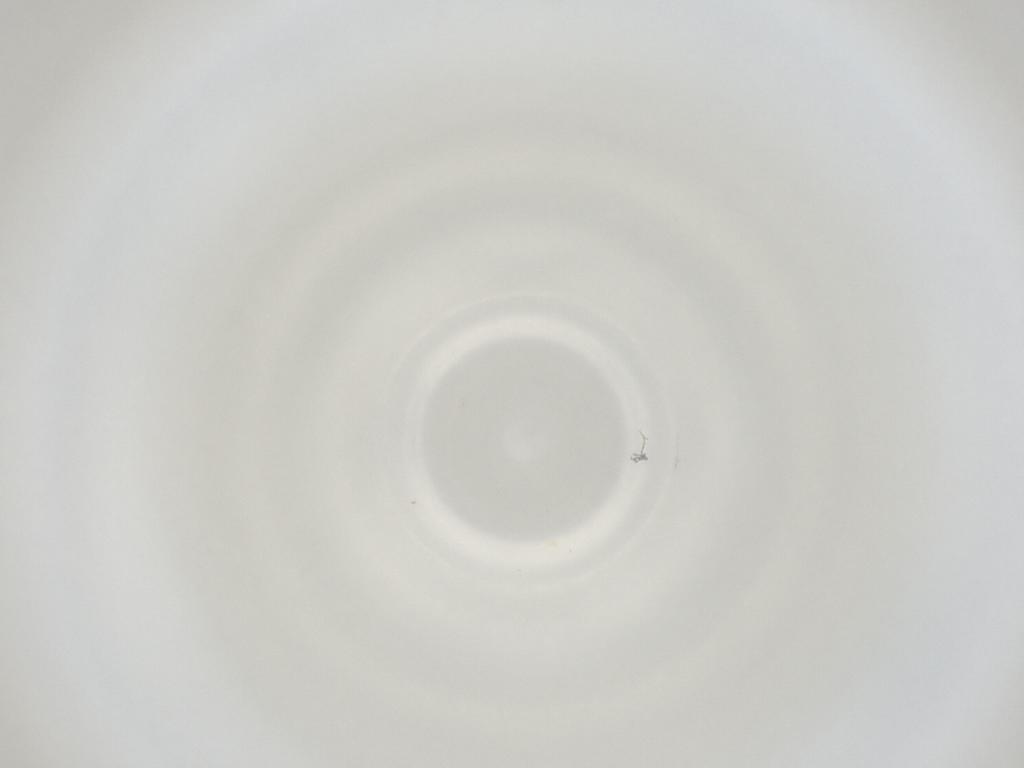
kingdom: Animalia
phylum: Arthropoda
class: Insecta
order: Diptera
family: Cecidomyiidae
